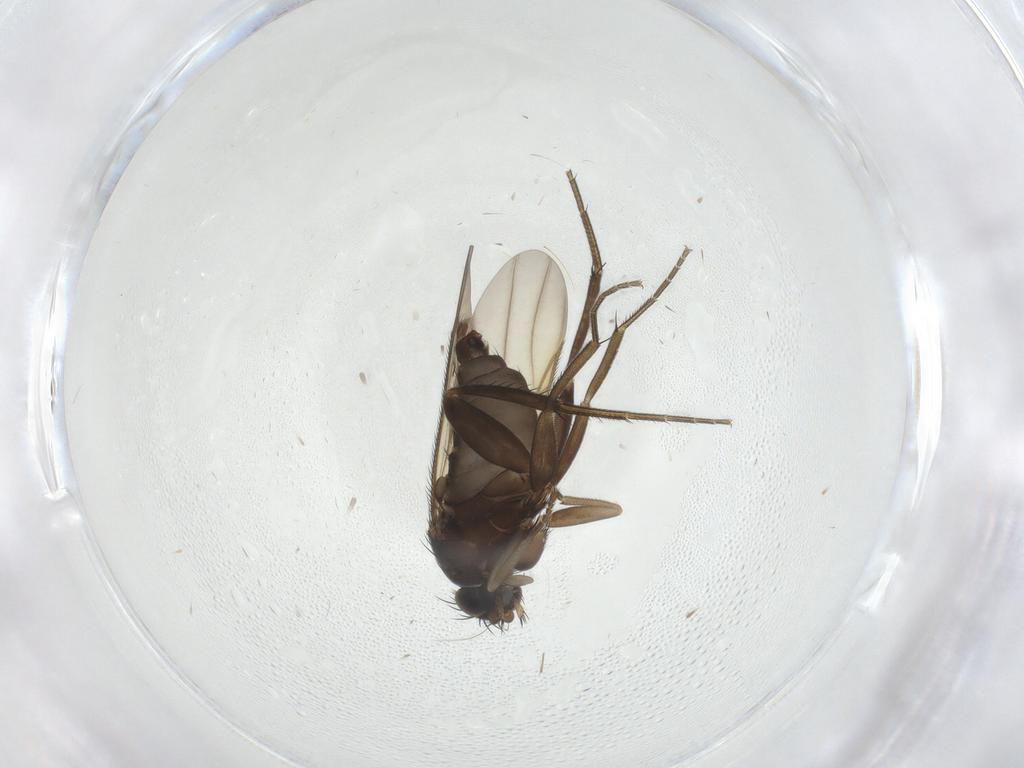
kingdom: Animalia
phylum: Arthropoda
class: Insecta
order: Diptera
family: Phoridae
